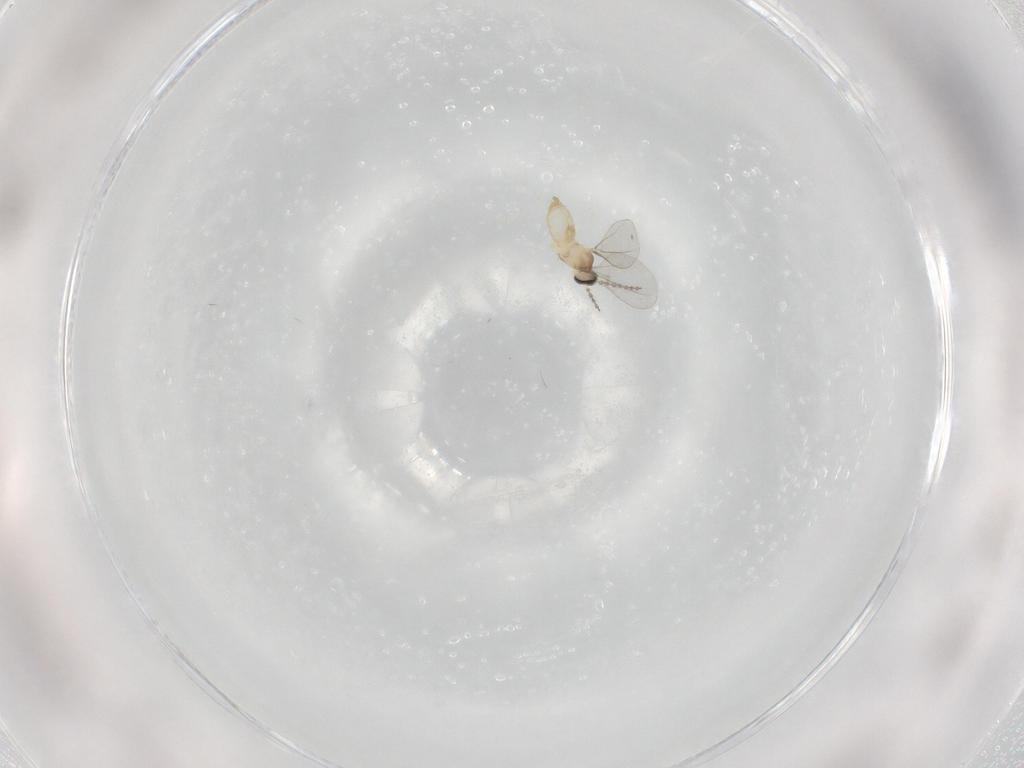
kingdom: Animalia
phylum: Arthropoda
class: Insecta
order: Diptera
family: Cecidomyiidae
